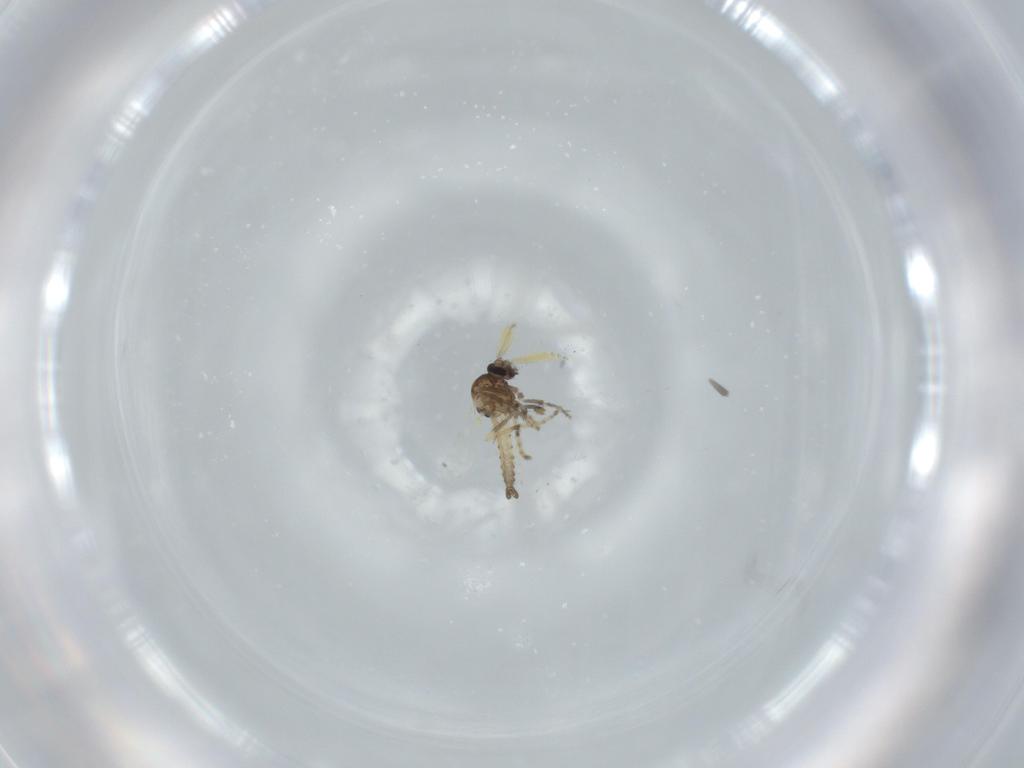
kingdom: Animalia
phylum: Arthropoda
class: Insecta
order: Diptera
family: Ceratopogonidae
